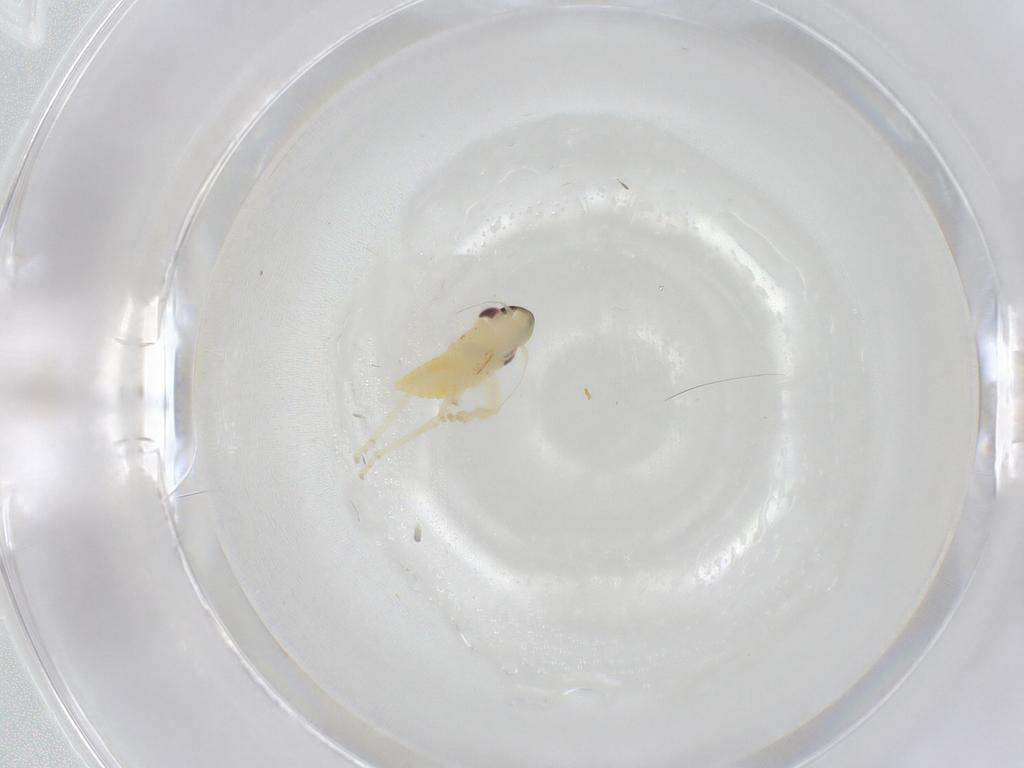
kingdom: Animalia
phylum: Arthropoda
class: Insecta
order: Hemiptera
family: Cicadellidae
